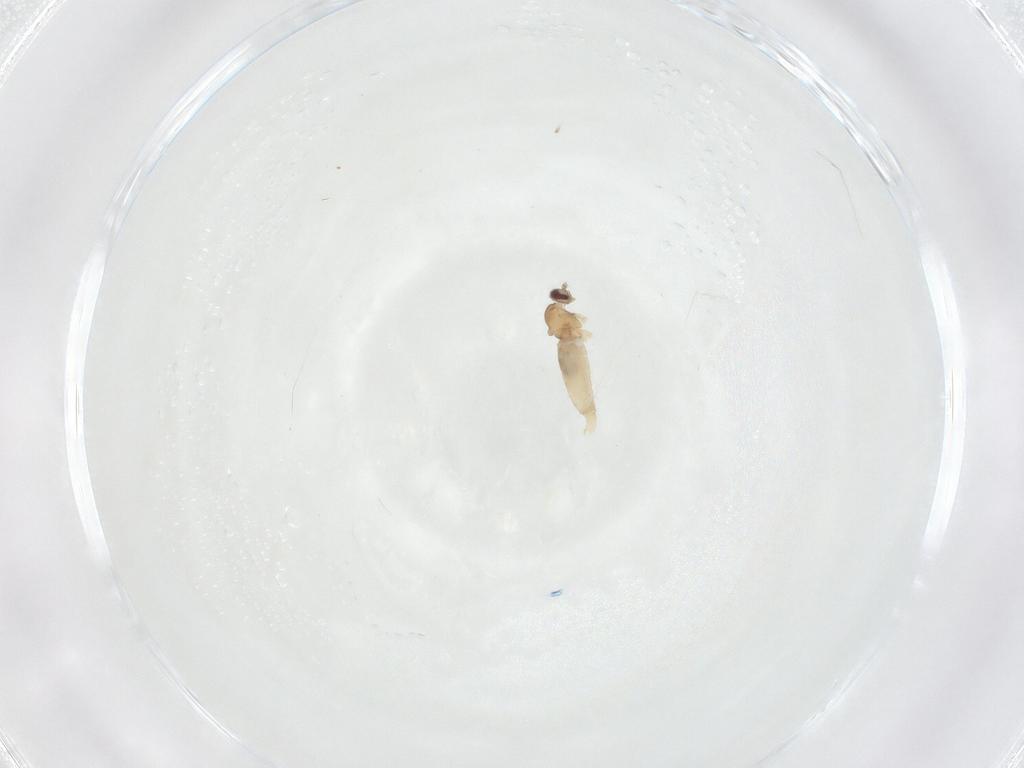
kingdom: Animalia
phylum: Arthropoda
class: Insecta
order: Diptera
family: Cecidomyiidae
